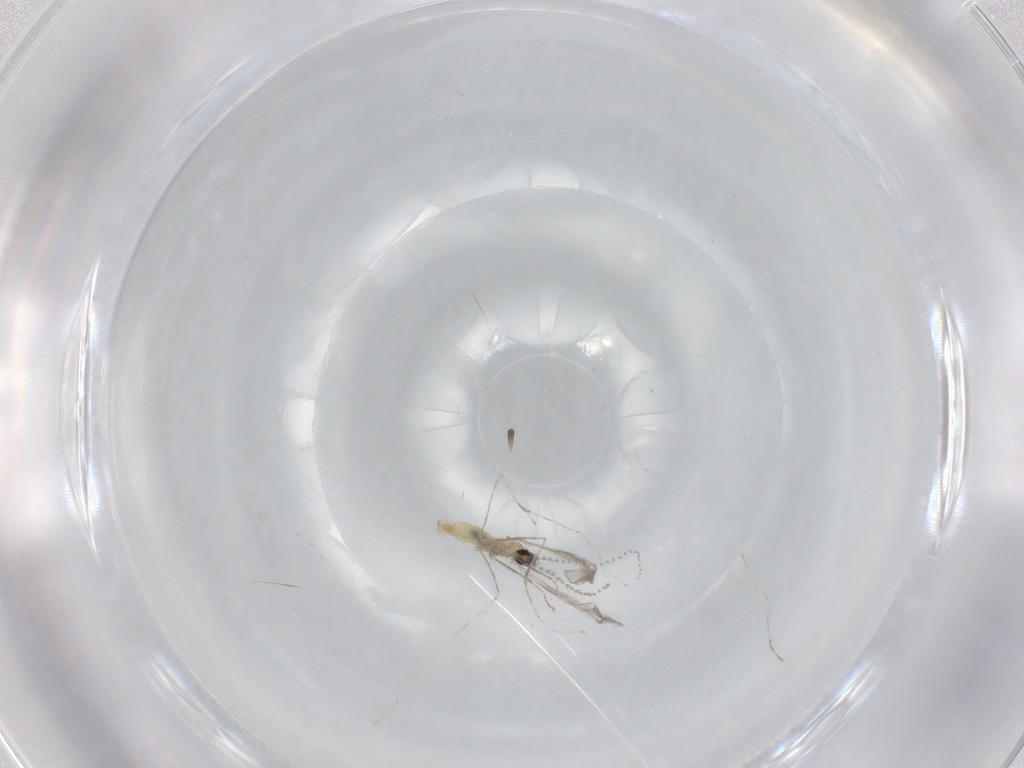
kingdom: Animalia
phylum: Arthropoda
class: Insecta
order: Diptera
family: Cecidomyiidae
